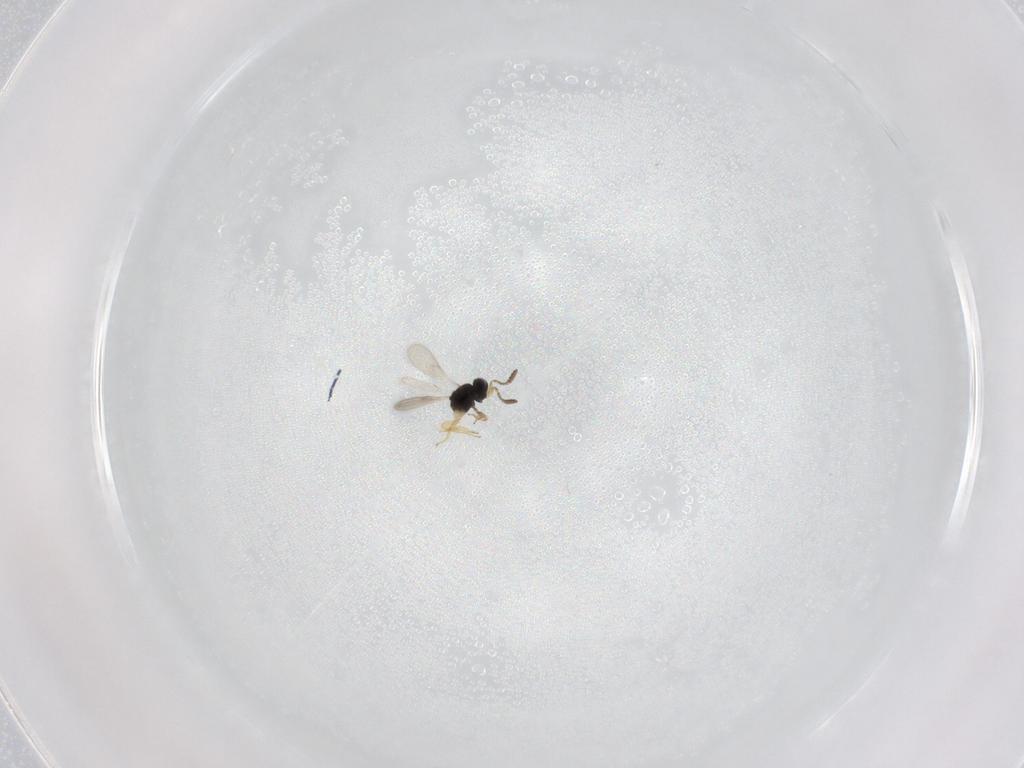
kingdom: Animalia
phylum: Arthropoda
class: Insecta
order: Hymenoptera
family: Scelionidae
